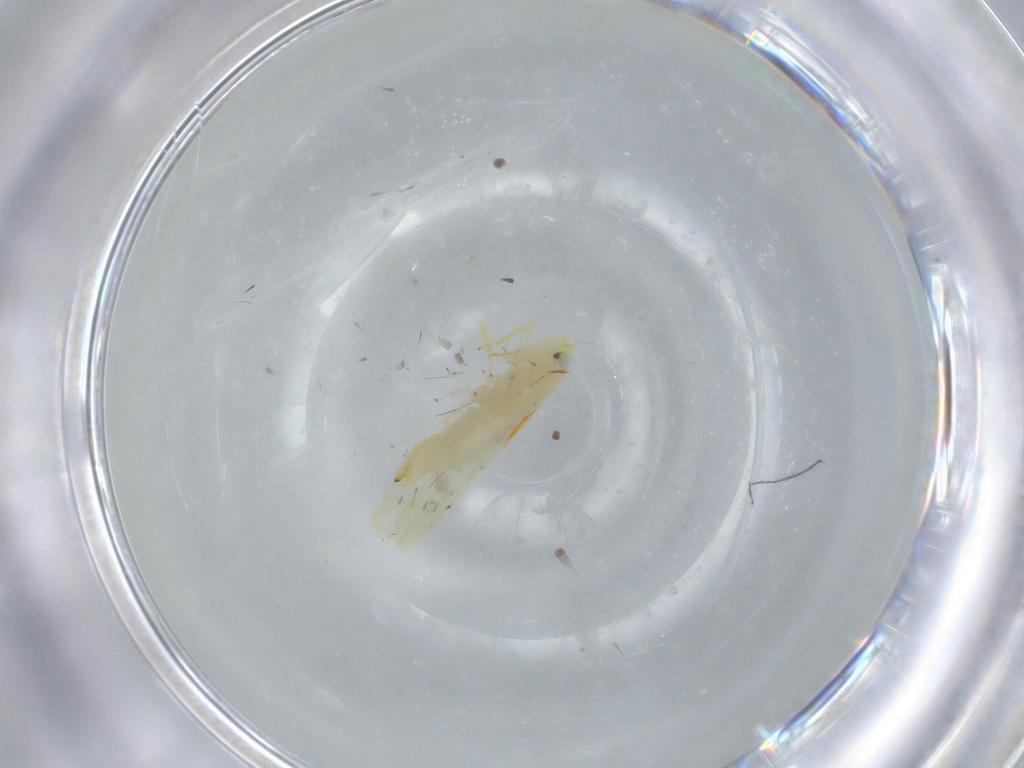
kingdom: Animalia
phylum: Arthropoda
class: Insecta
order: Hemiptera
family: Cicadellidae
